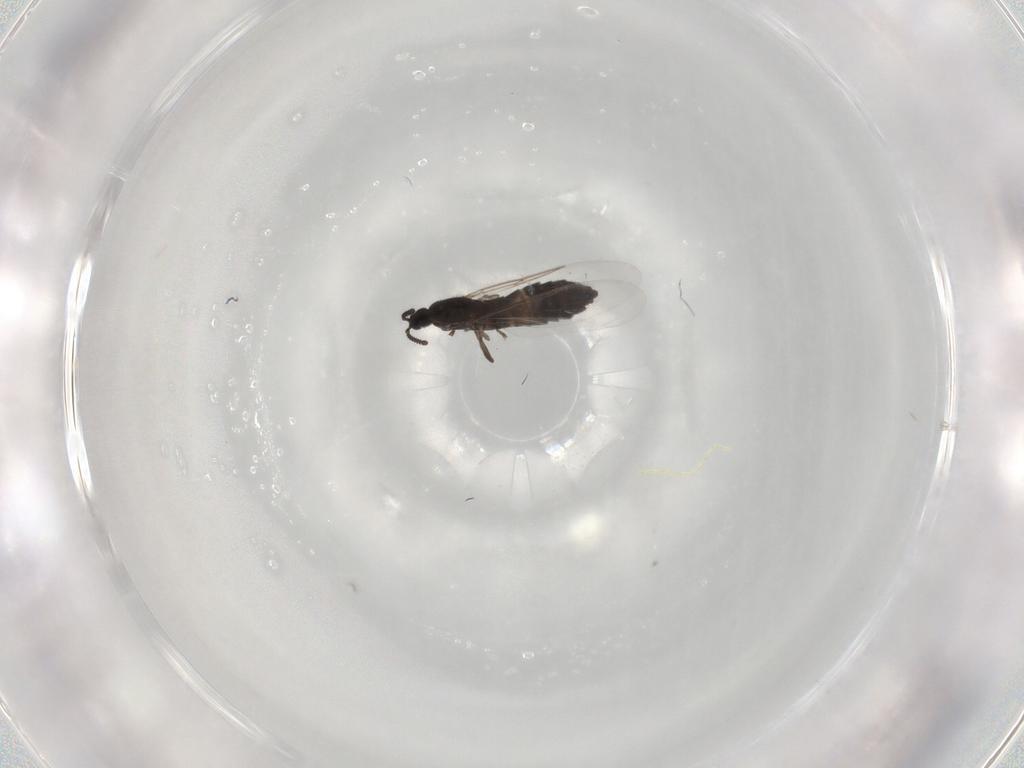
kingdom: Animalia
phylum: Arthropoda
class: Insecta
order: Diptera
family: Scatopsidae
